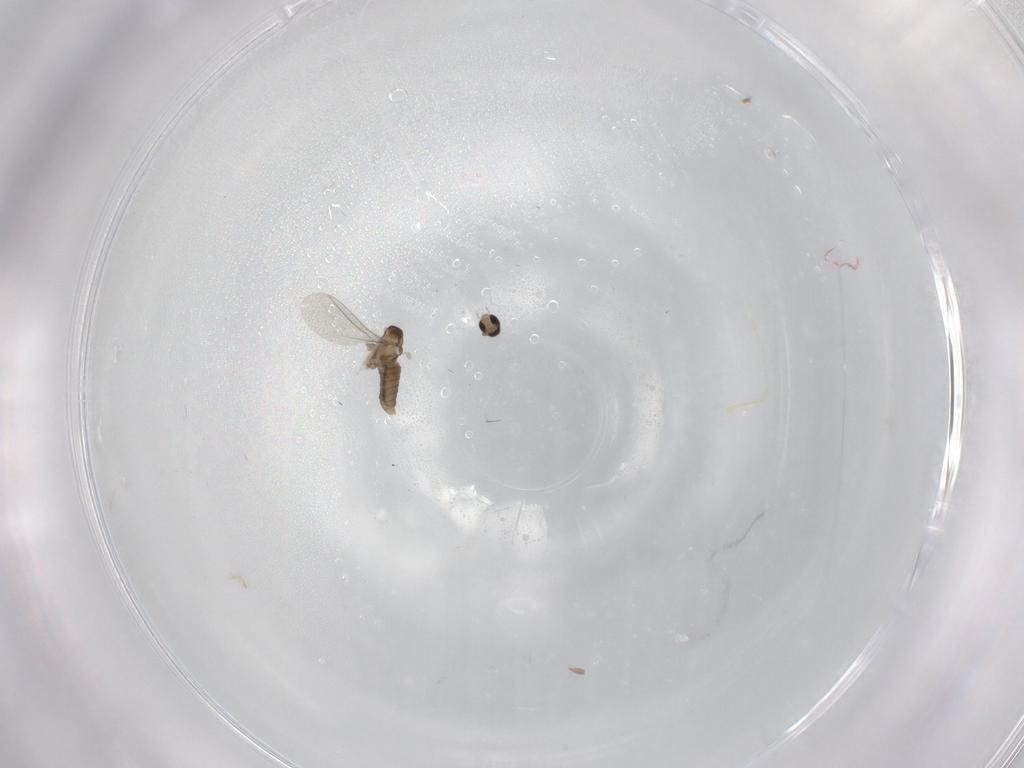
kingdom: Animalia
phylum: Arthropoda
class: Insecta
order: Diptera
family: Cecidomyiidae
